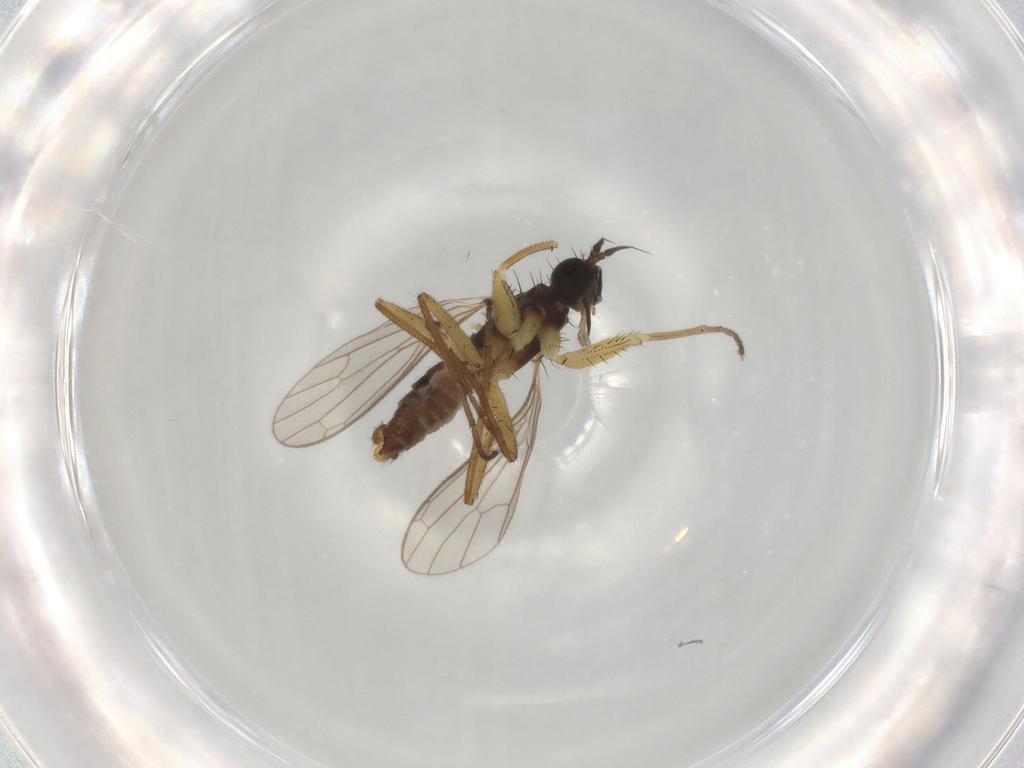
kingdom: Animalia
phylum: Arthropoda
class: Insecta
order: Diptera
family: Empididae
